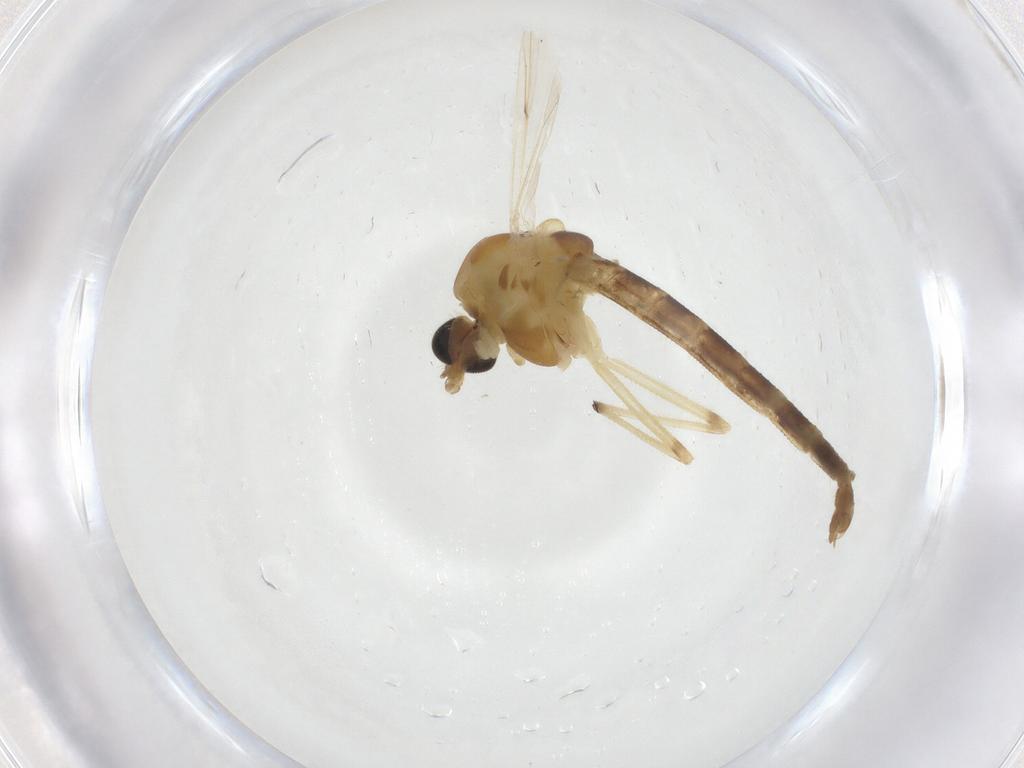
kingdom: Animalia
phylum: Arthropoda
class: Insecta
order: Diptera
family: Chironomidae
